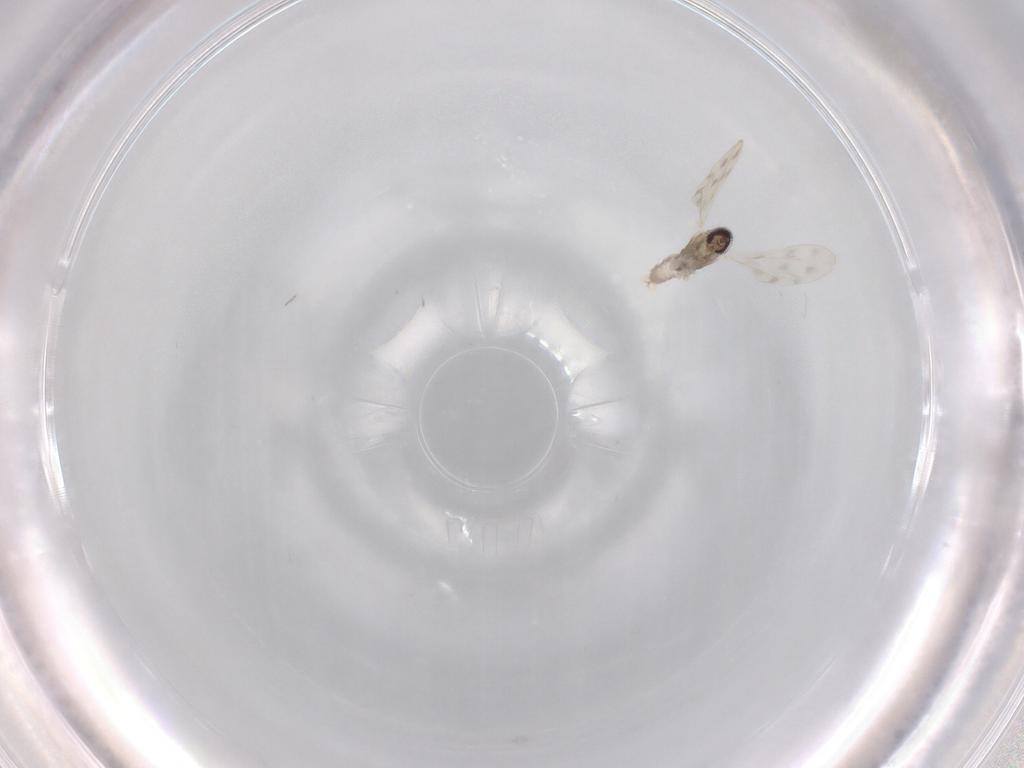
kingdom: Animalia
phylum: Arthropoda
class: Insecta
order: Diptera
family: Cecidomyiidae
